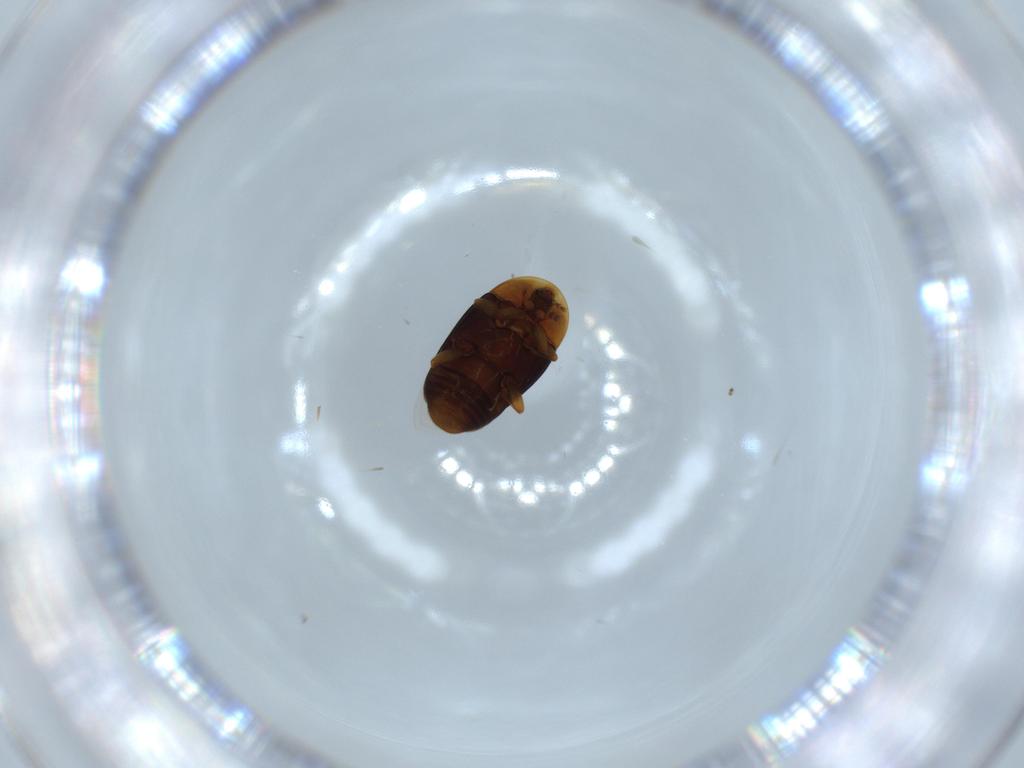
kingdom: Animalia
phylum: Arthropoda
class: Insecta
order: Coleoptera
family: Corylophidae
